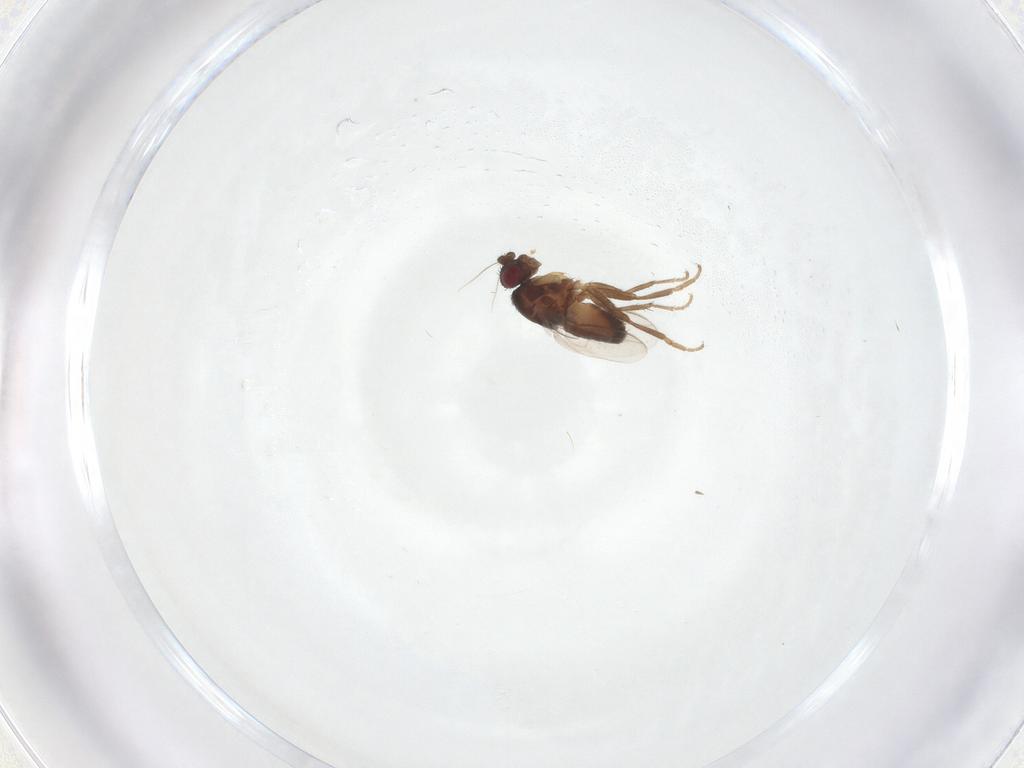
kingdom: Animalia
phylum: Arthropoda
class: Insecta
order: Diptera
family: Sphaeroceridae
